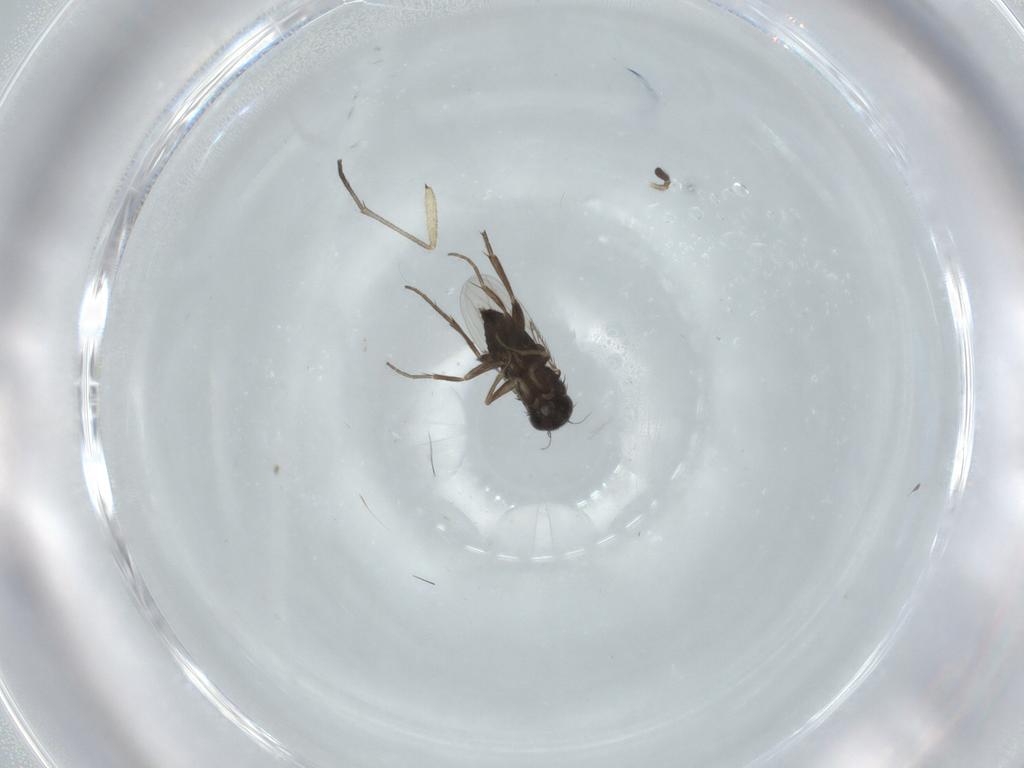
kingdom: Animalia
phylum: Arthropoda
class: Insecta
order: Diptera
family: Phoridae
